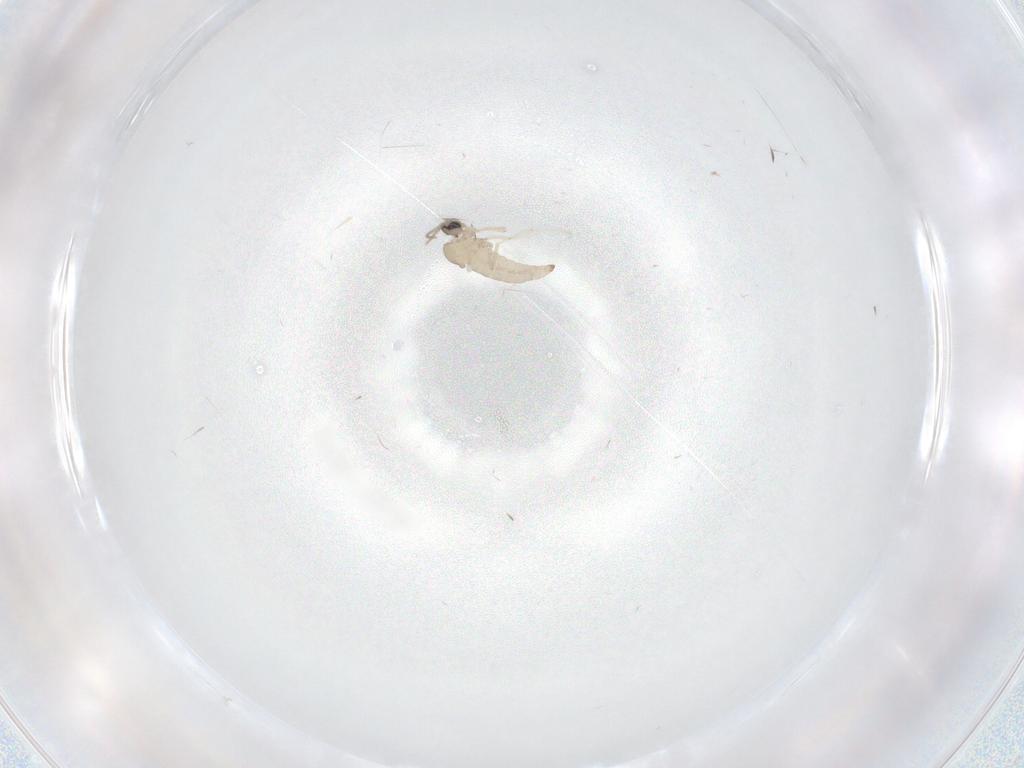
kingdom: Animalia
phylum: Arthropoda
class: Insecta
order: Diptera
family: Cecidomyiidae
